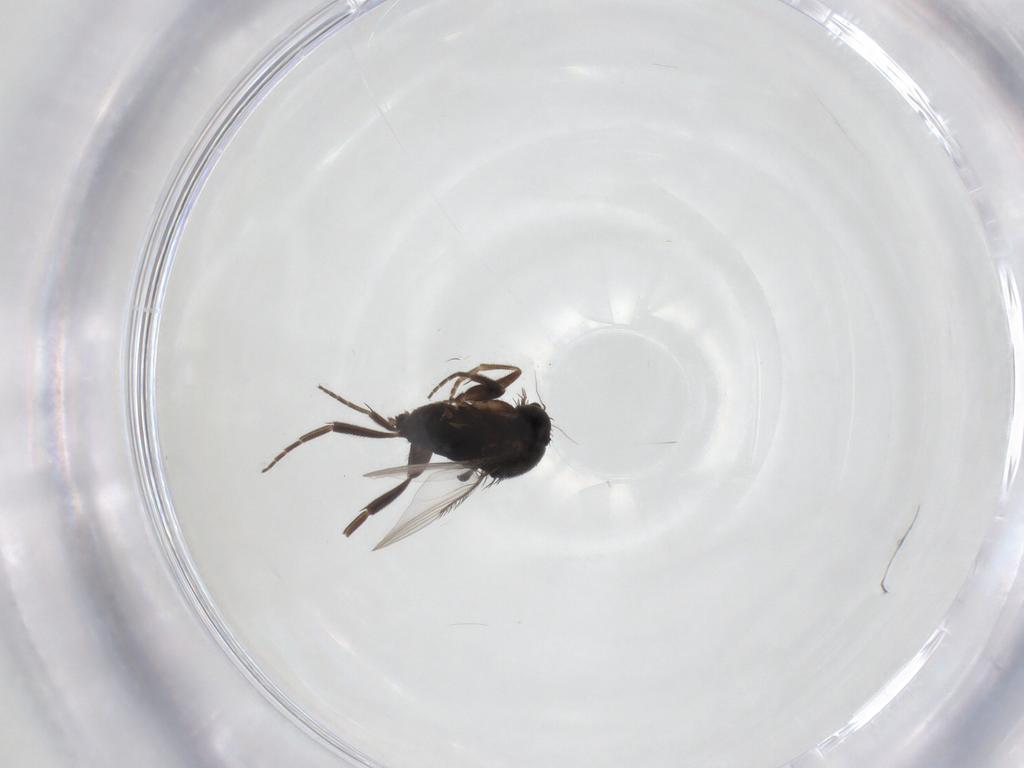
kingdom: Animalia
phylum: Arthropoda
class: Insecta
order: Diptera
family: Phoridae
